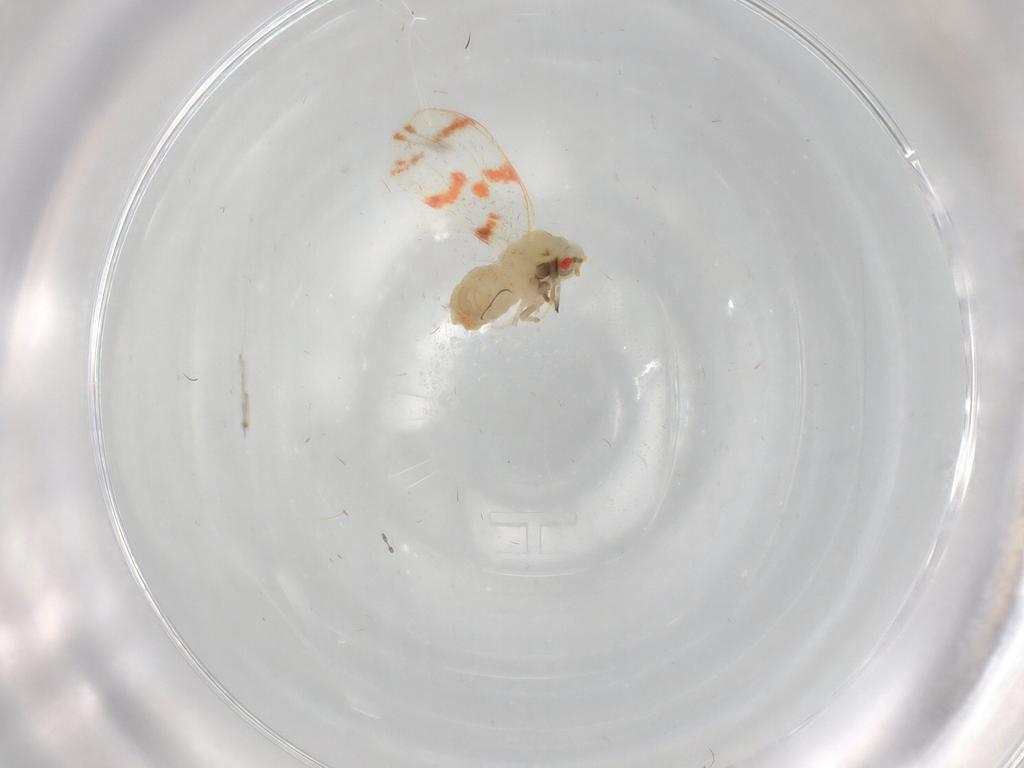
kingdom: Animalia
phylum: Arthropoda
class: Insecta
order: Hemiptera
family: Aleyrodidae
